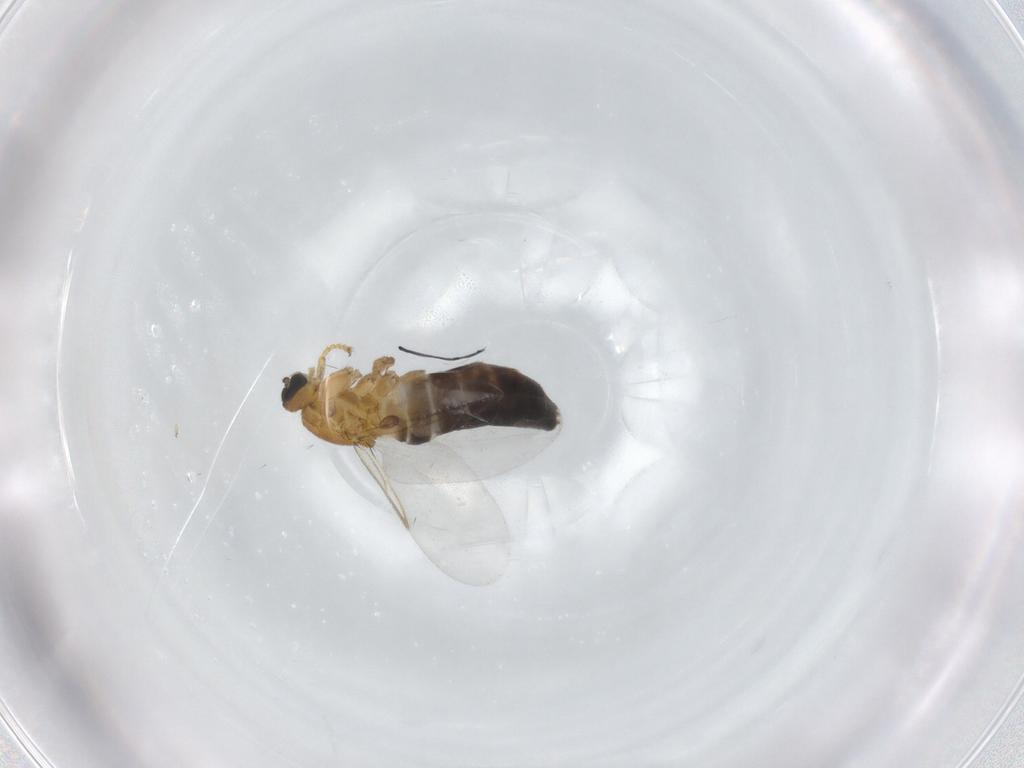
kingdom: Animalia
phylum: Arthropoda
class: Insecta
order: Diptera
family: Scatopsidae
